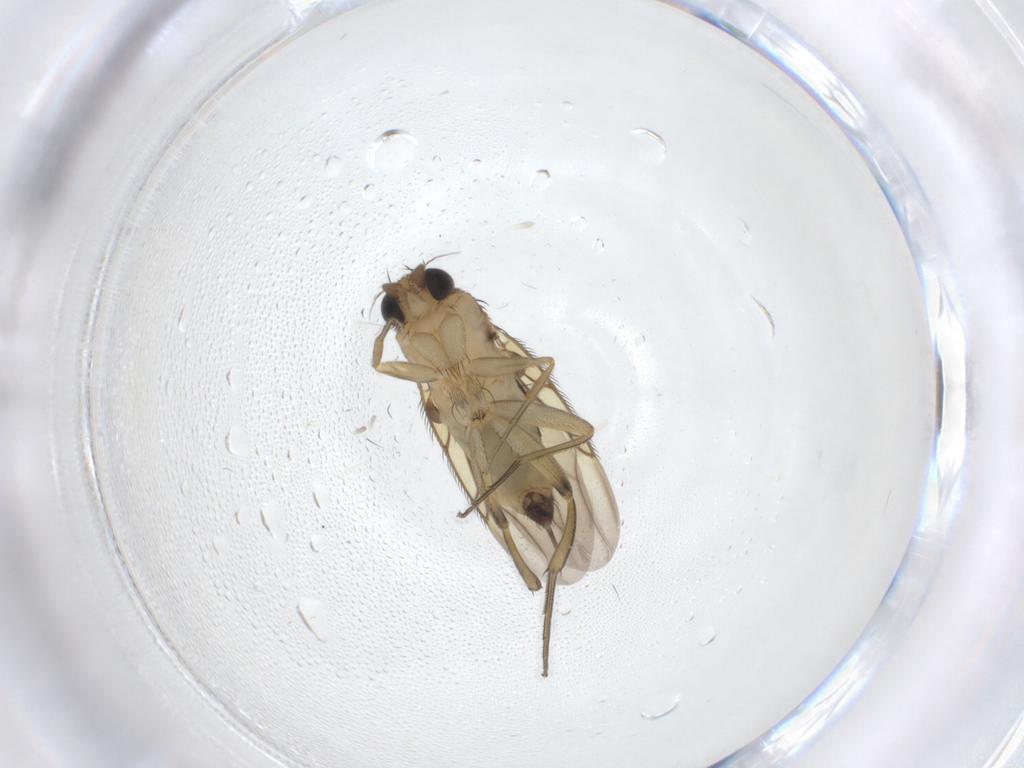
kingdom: Animalia
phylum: Arthropoda
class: Insecta
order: Diptera
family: Phoridae
